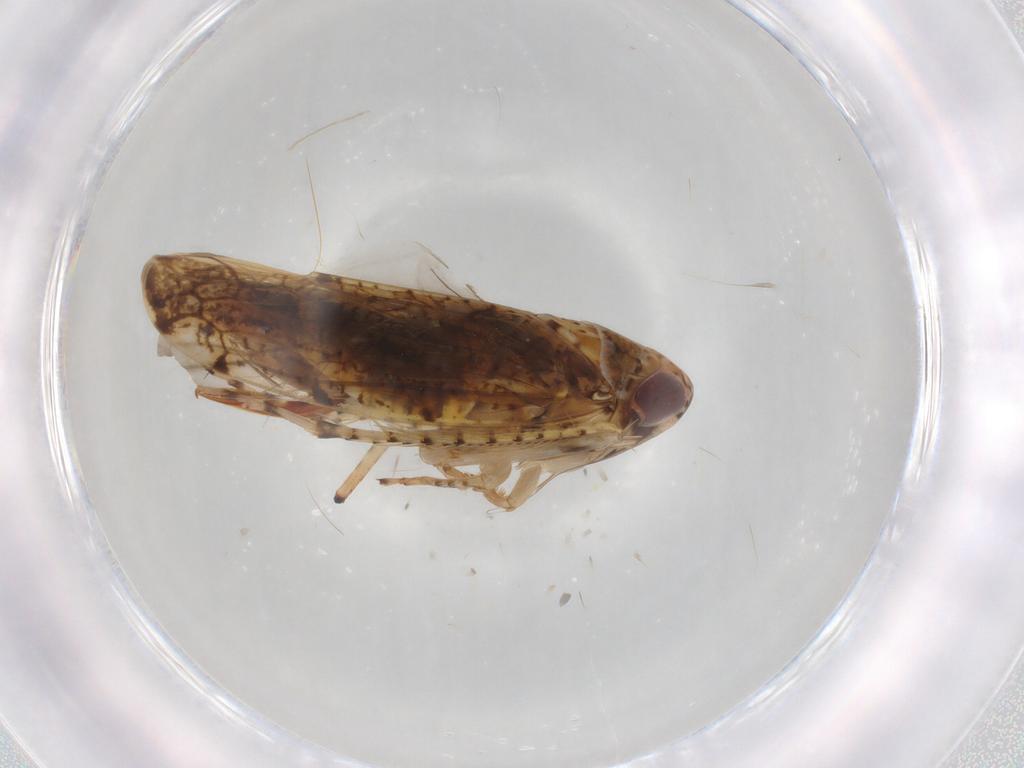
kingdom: Animalia
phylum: Arthropoda
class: Insecta
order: Hemiptera
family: Cicadellidae
